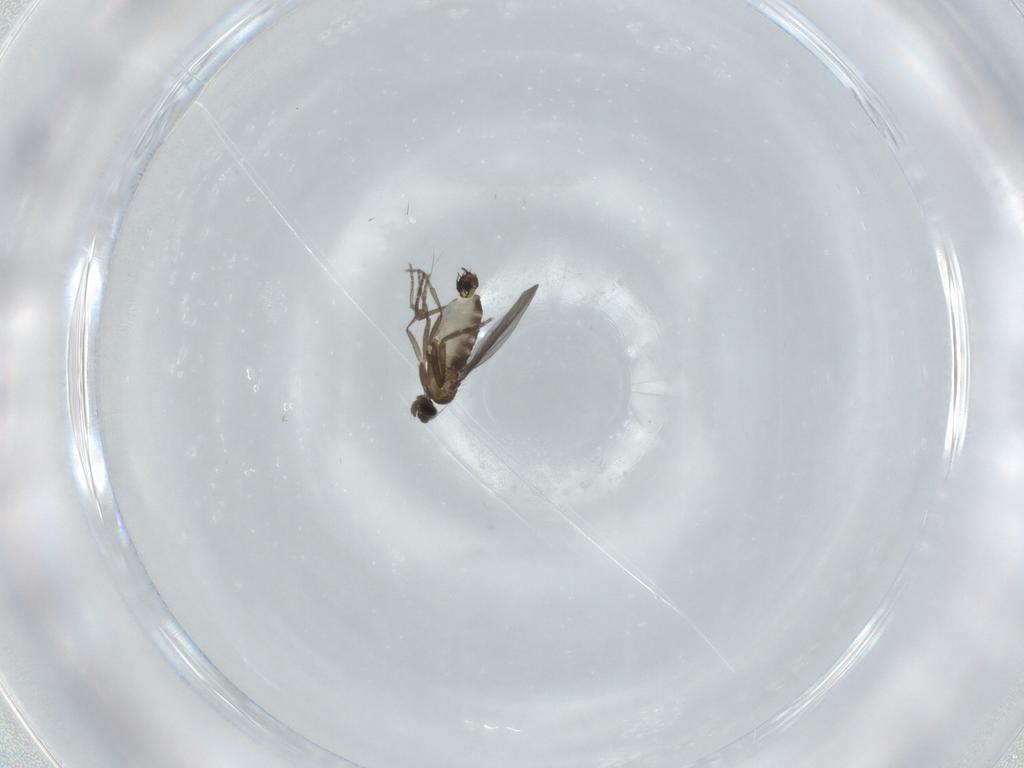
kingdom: Animalia
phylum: Arthropoda
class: Insecta
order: Diptera
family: Phoridae
